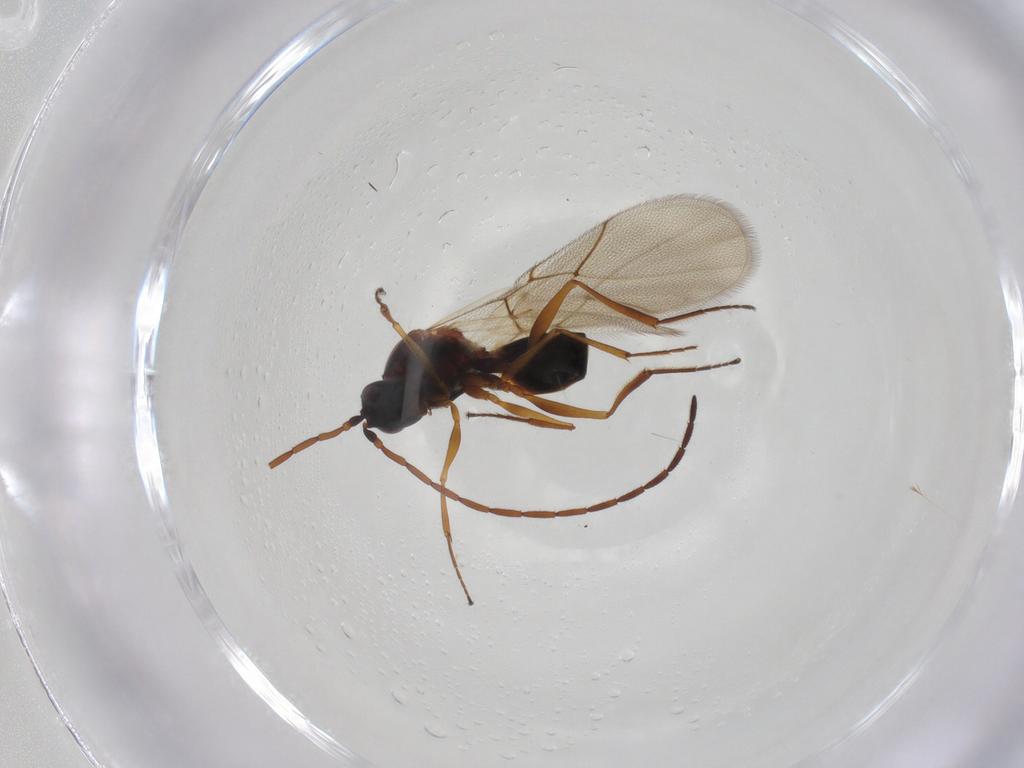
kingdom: Animalia
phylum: Arthropoda
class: Insecta
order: Hymenoptera
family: Figitidae
